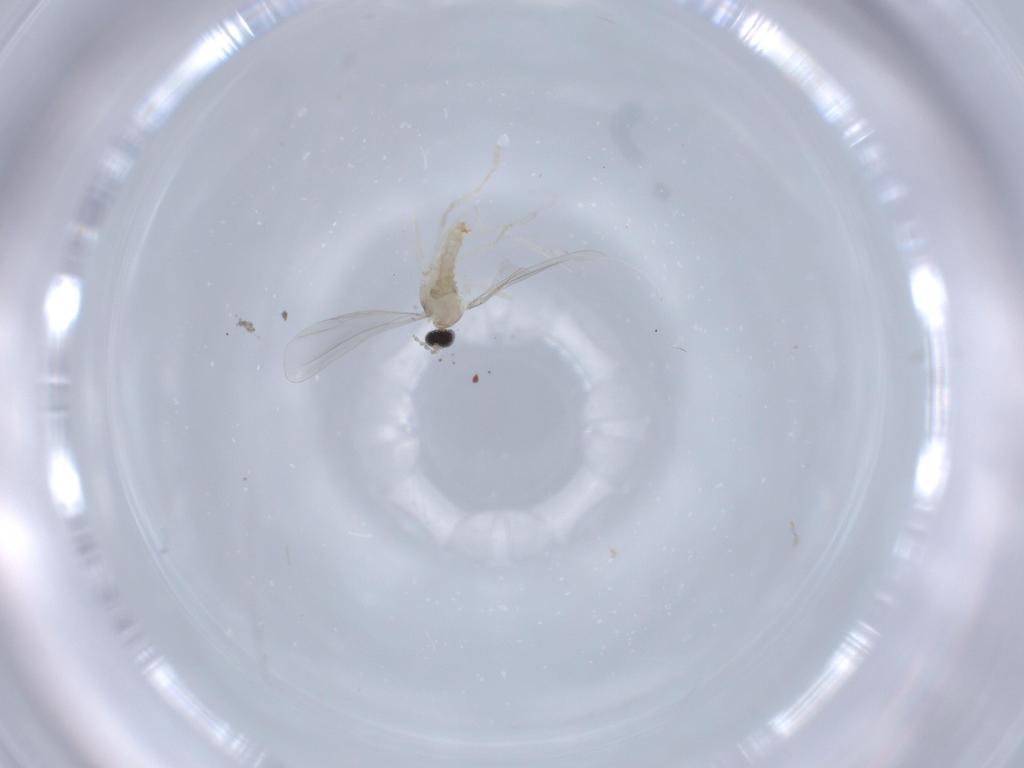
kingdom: Animalia
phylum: Arthropoda
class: Insecta
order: Diptera
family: Cecidomyiidae
